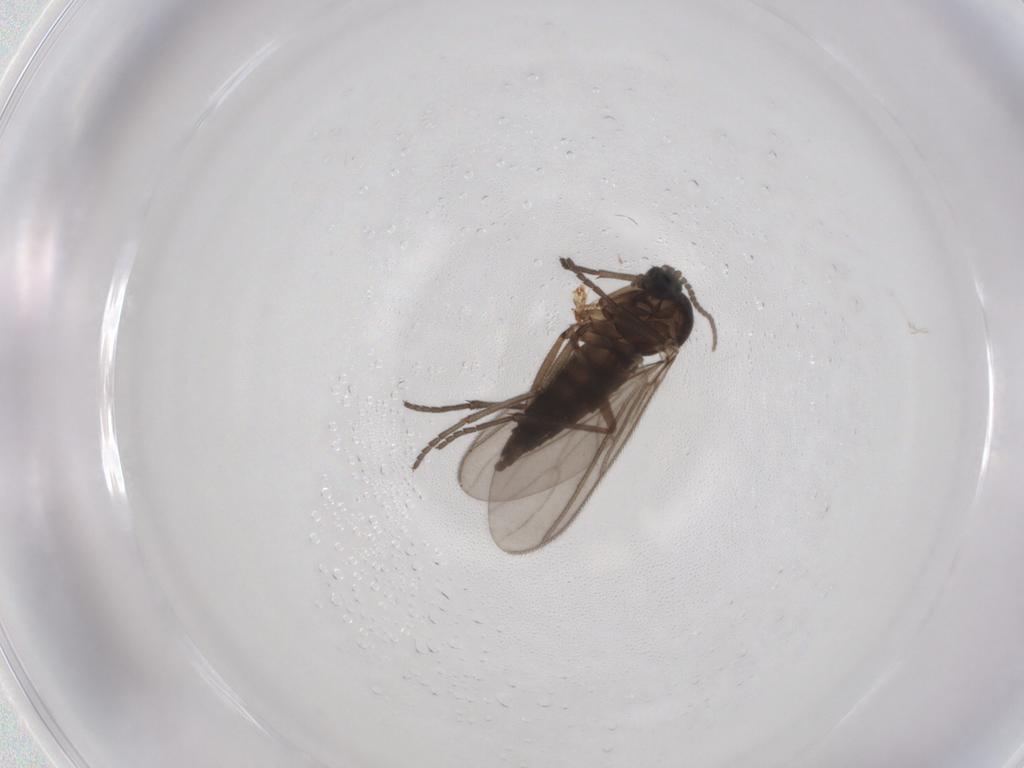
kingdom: Animalia
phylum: Arthropoda
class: Insecta
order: Diptera
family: Sciaridae
